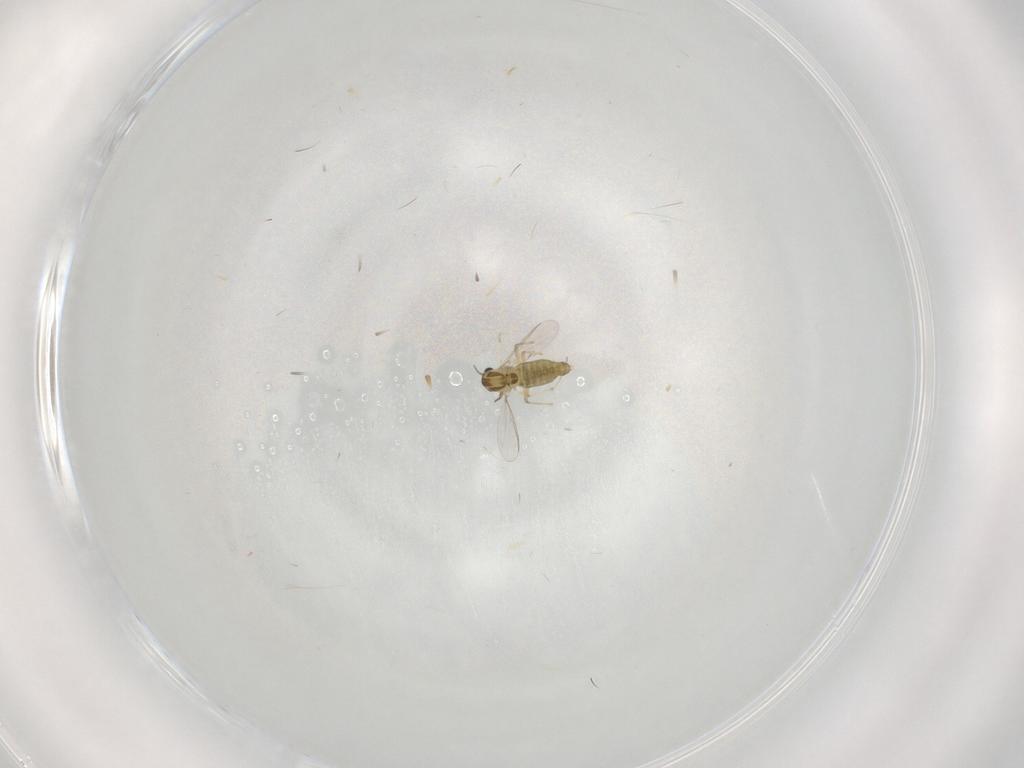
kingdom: Animalia
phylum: Arthropoda
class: Insecta
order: Diptera
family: Chironomidae
